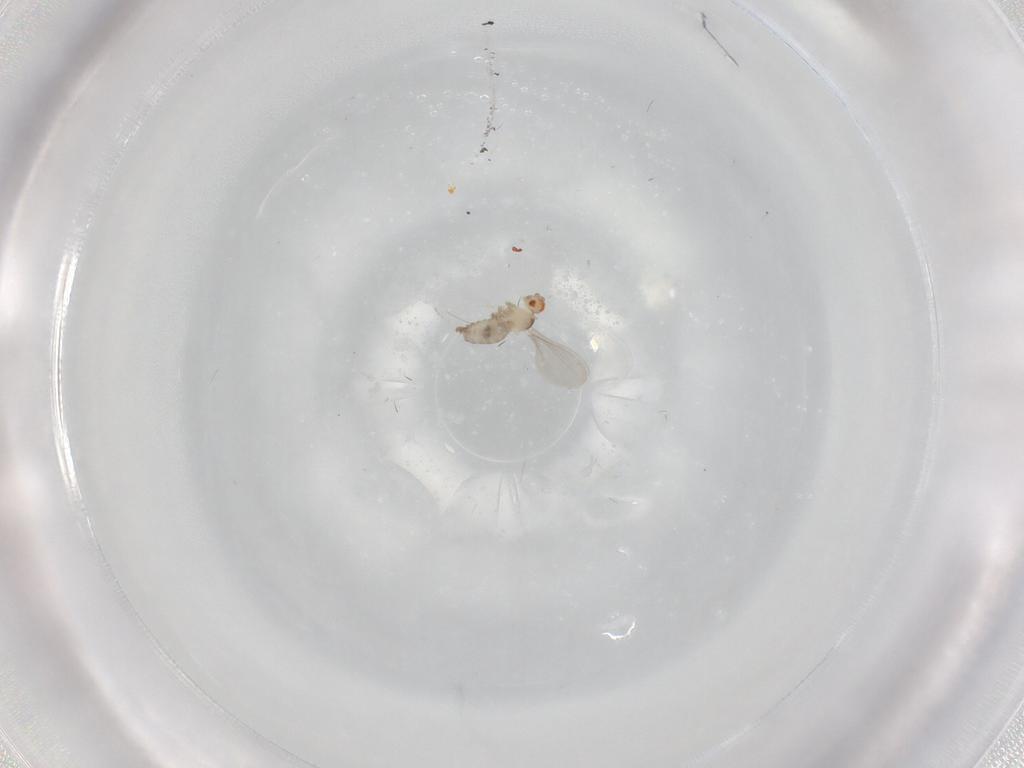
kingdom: Animalia
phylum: Arthropoda
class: Insecta
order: Diptera
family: Cecidomyiidae
